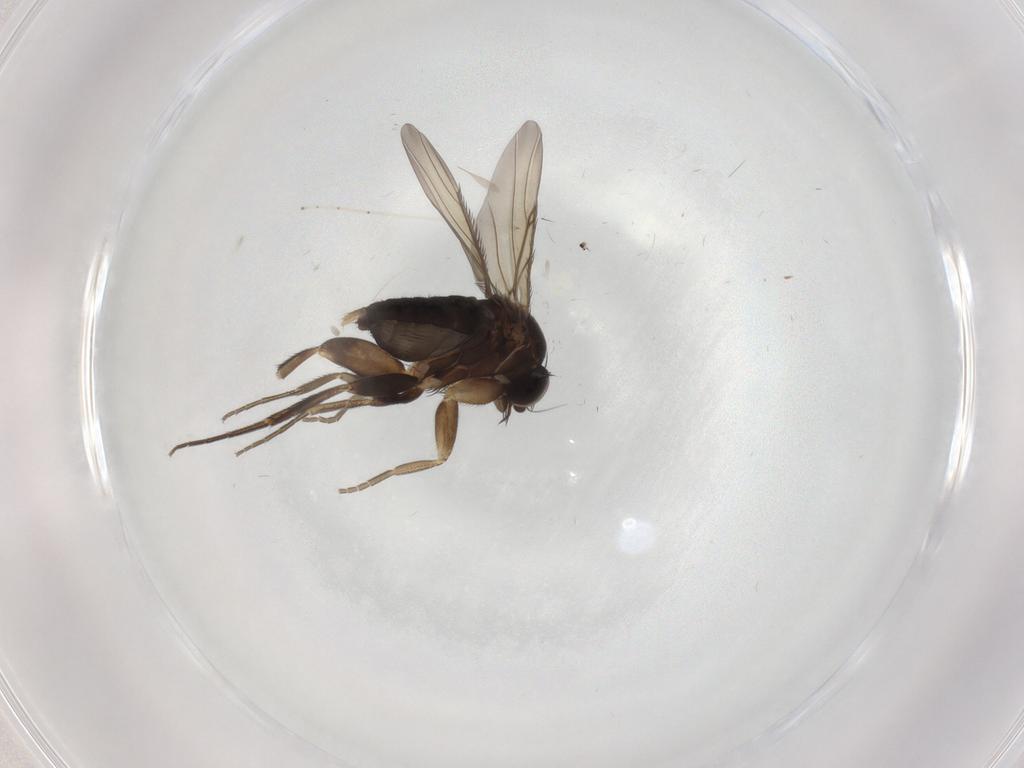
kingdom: Animalia
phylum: Arthropoda
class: Insecta
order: Diptera
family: Phoridae
